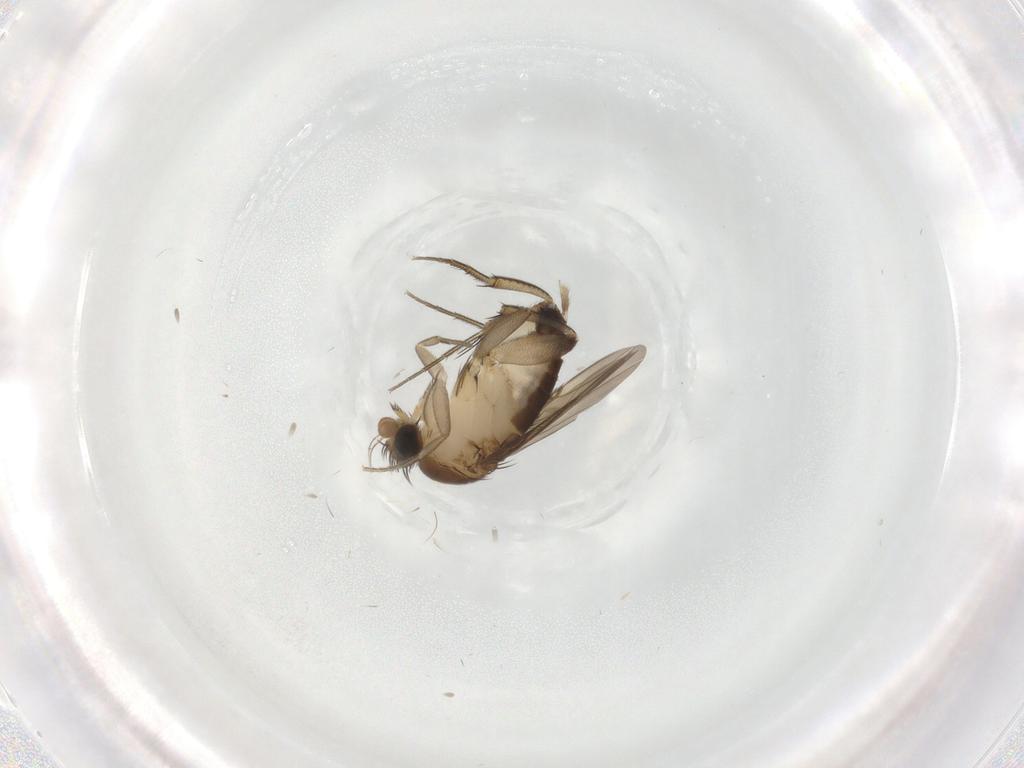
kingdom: Animalia
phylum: Arthropoda
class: Insecta
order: Diptera
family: Phoridae
